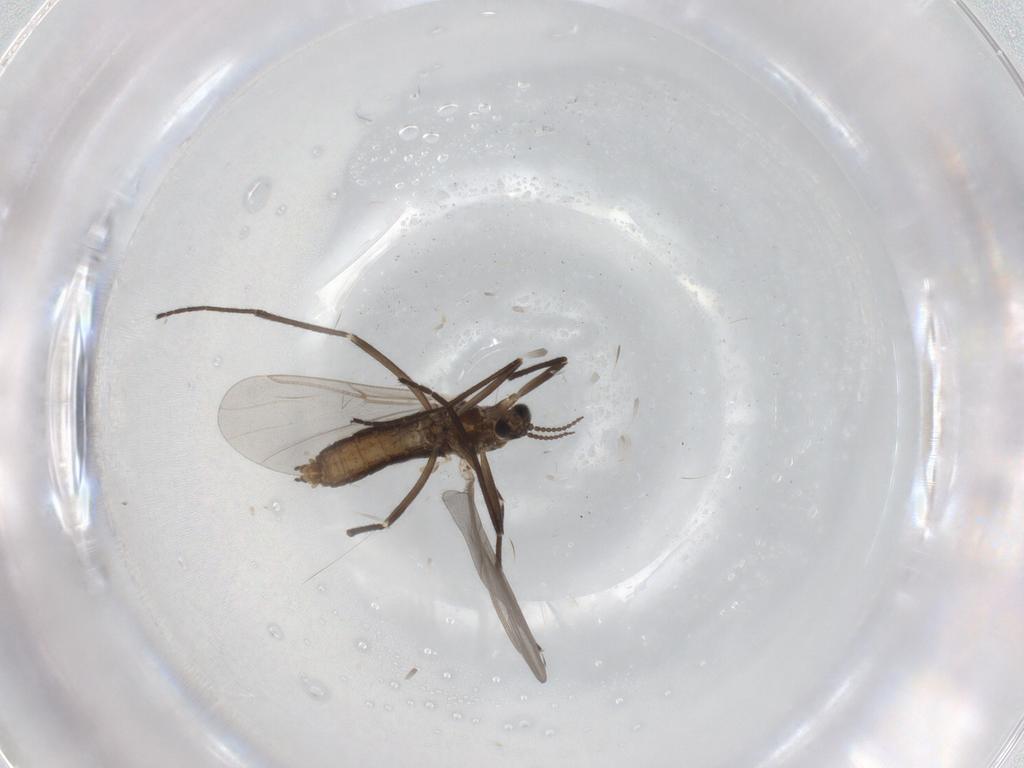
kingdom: Animalia
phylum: Arthropoda
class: Insecta
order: Diptera
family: Cecidomyiidae
